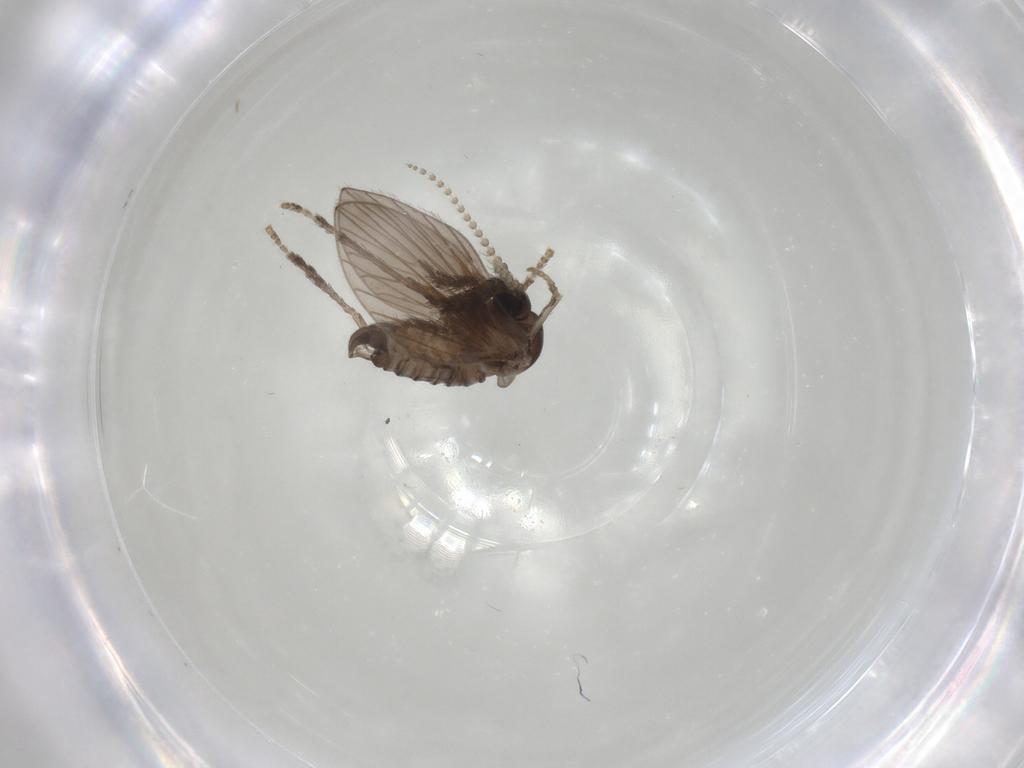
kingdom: Animalia
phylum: Arthropoda
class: Insecta
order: Diptera
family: Psychodidae
